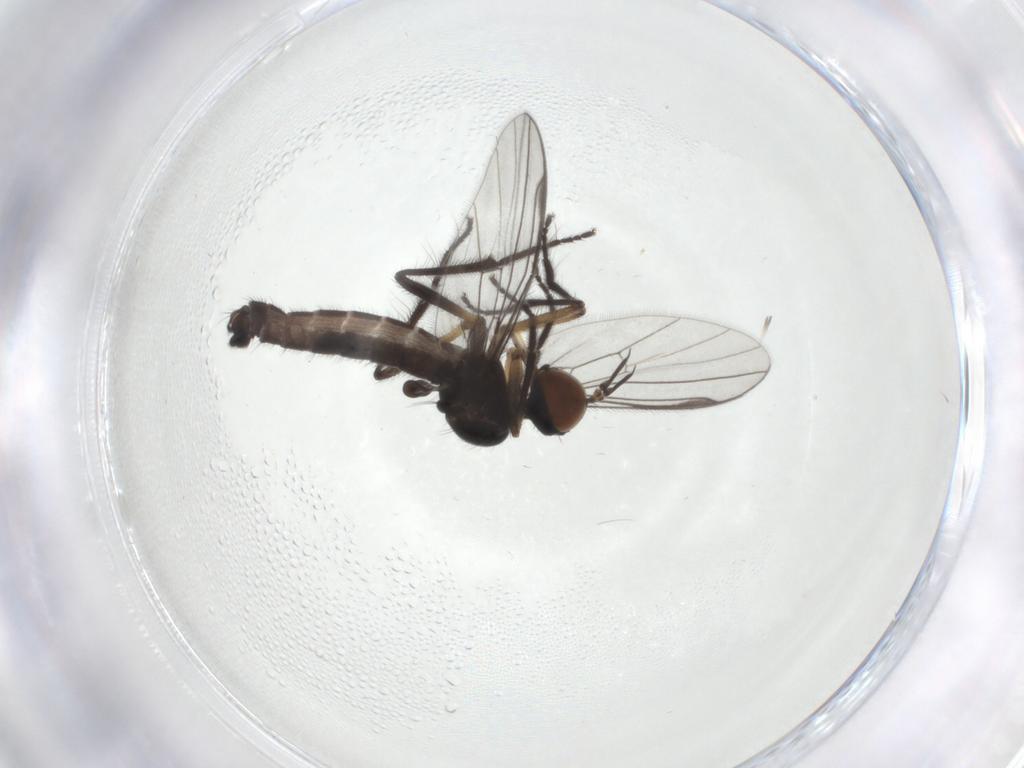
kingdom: Animalia
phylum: Arthropoda
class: Insecta
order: Diptera
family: Empididae
